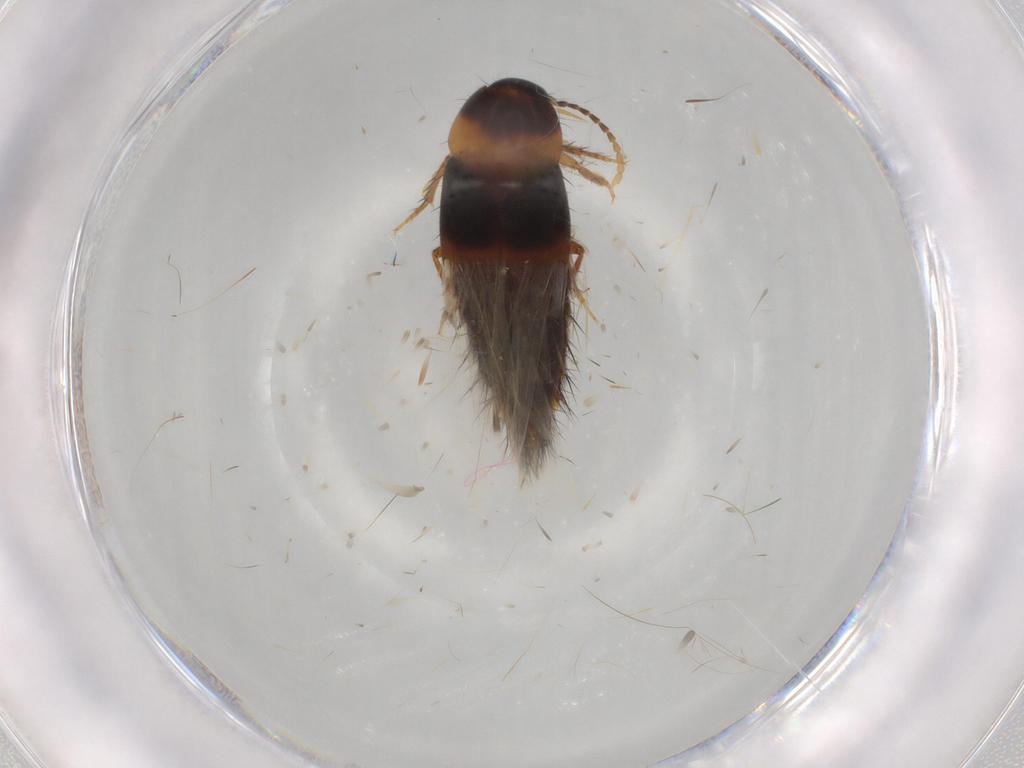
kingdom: Animalia
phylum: Arthropoda
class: Insecta
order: Coleoptera
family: Staphylinidae
